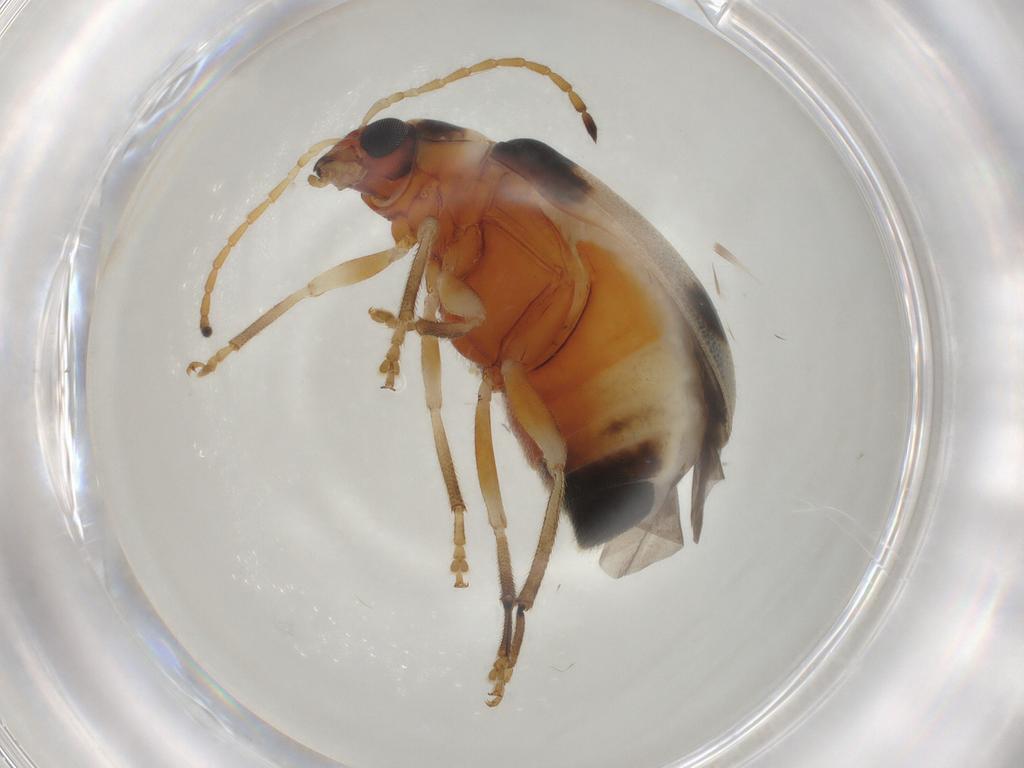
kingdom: Animalia
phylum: Arthropoda
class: Insecta
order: Coleoptera
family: Chrysomelidae
